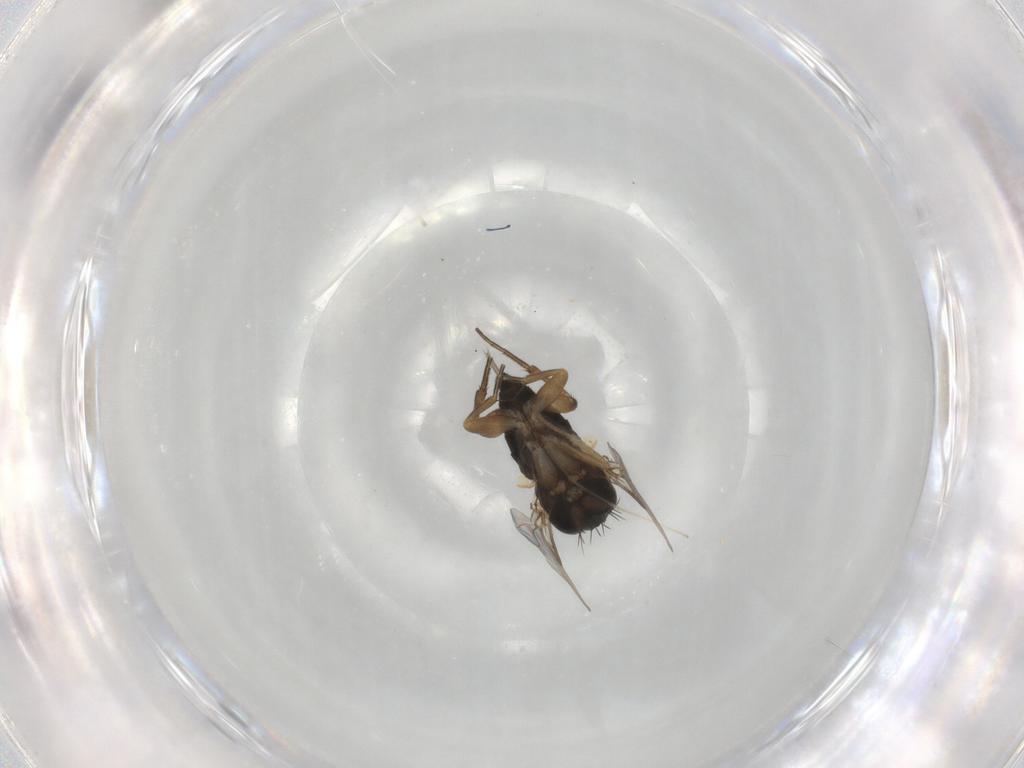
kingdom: Animalia
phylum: Arthropoda
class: Insecta
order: Diptera
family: Phoridae
